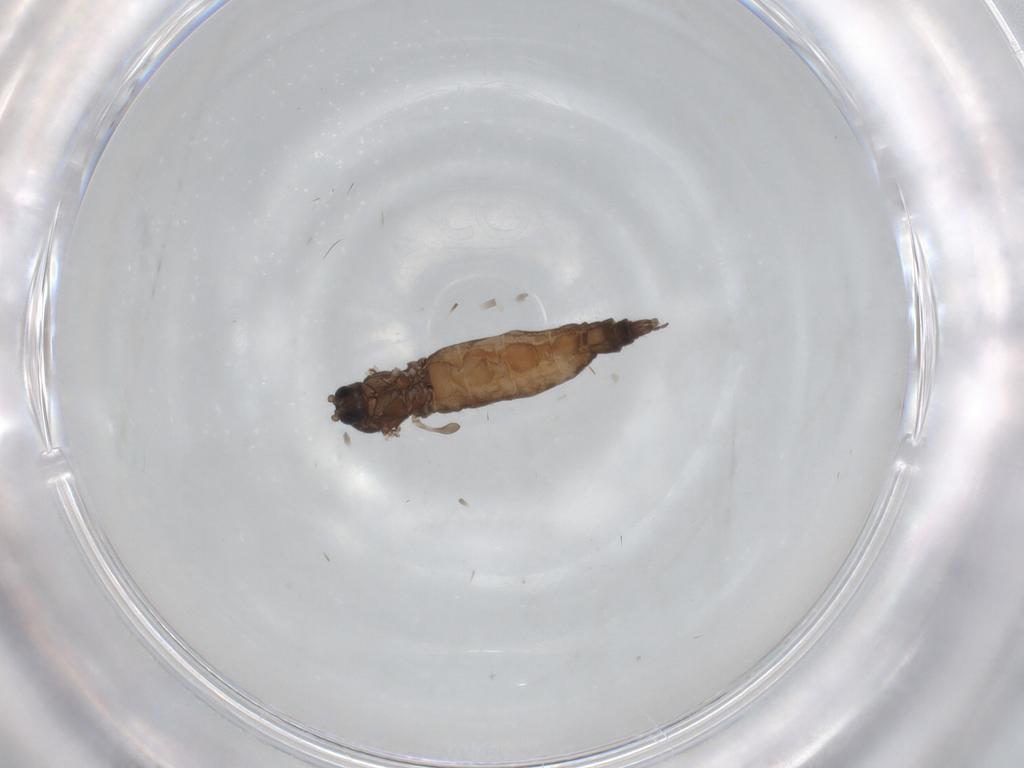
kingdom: Animalia
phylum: Arthropoda
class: Insecta
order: Diptera
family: Sciaridae
